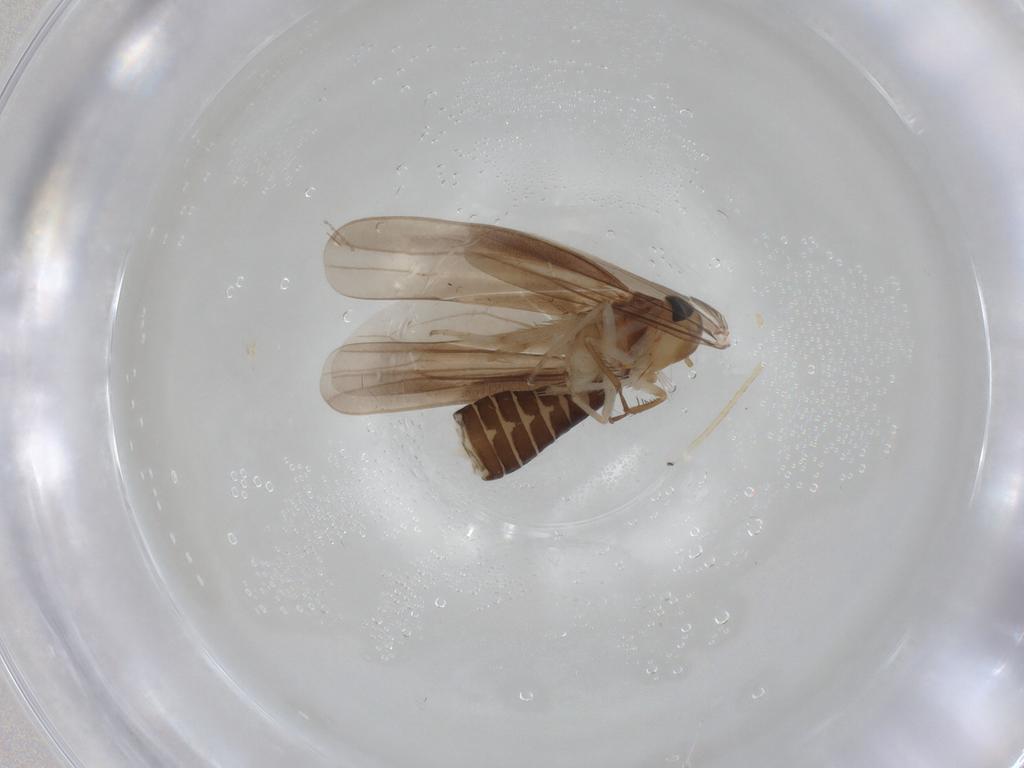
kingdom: Animalia
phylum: Arthropoda
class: Insecta
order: Hemiptera
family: Cicadellidae
